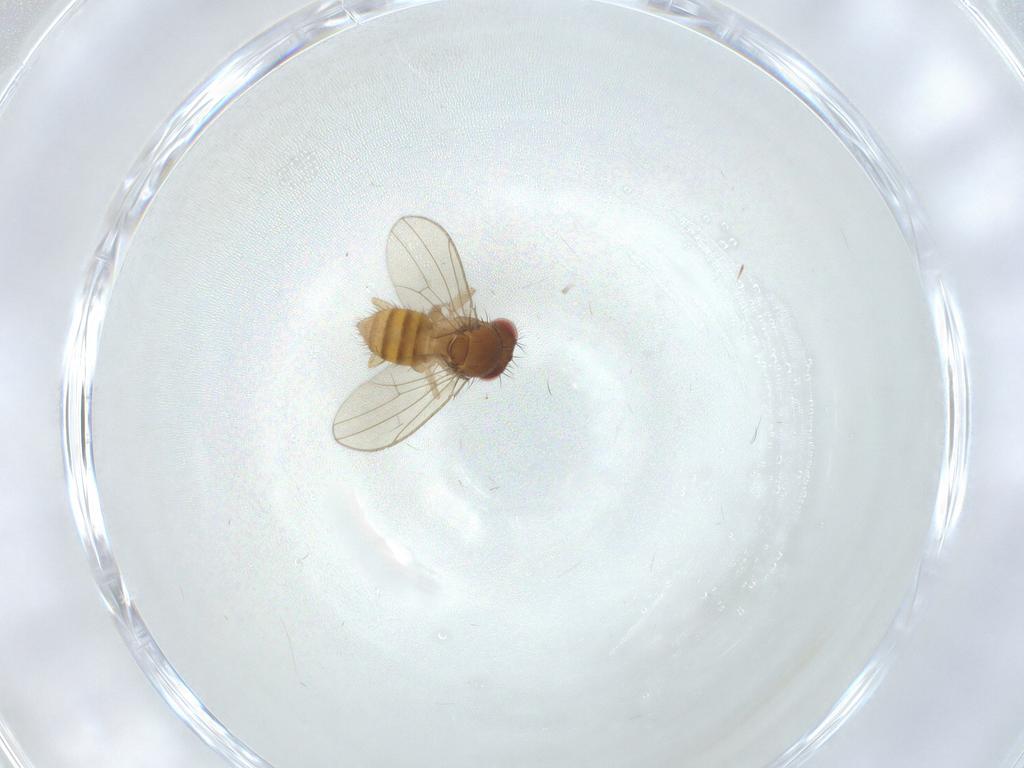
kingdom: Animalia
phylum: Arthropoda
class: Insecta
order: Diptera
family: Drosophilidae
